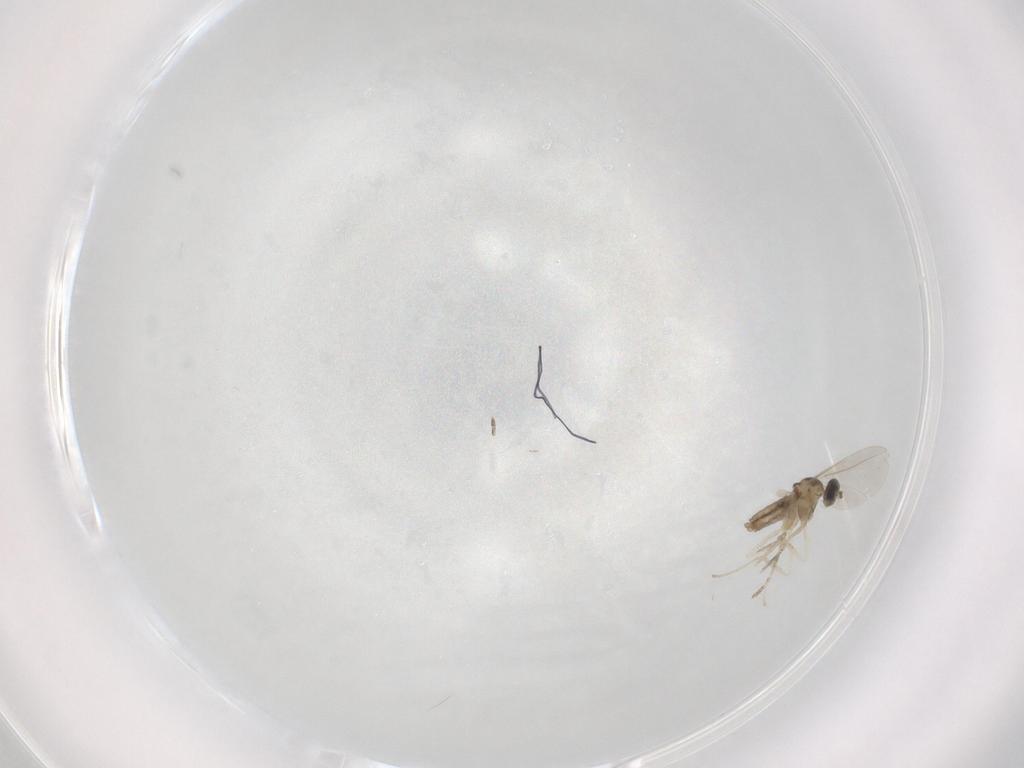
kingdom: Animalia
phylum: Arthropoda
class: Insecta
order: Diptera
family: Cecidomyiidae
